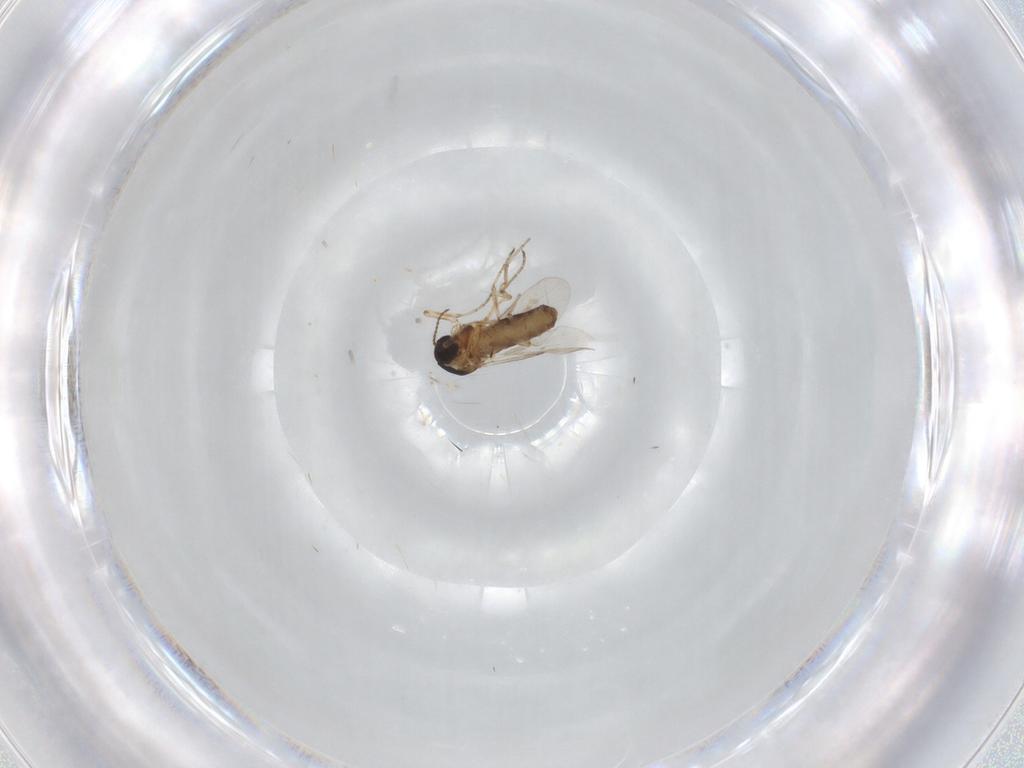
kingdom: Animalia
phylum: Arthropoda
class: Insecta
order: Diptera
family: Ceratopogonidae
